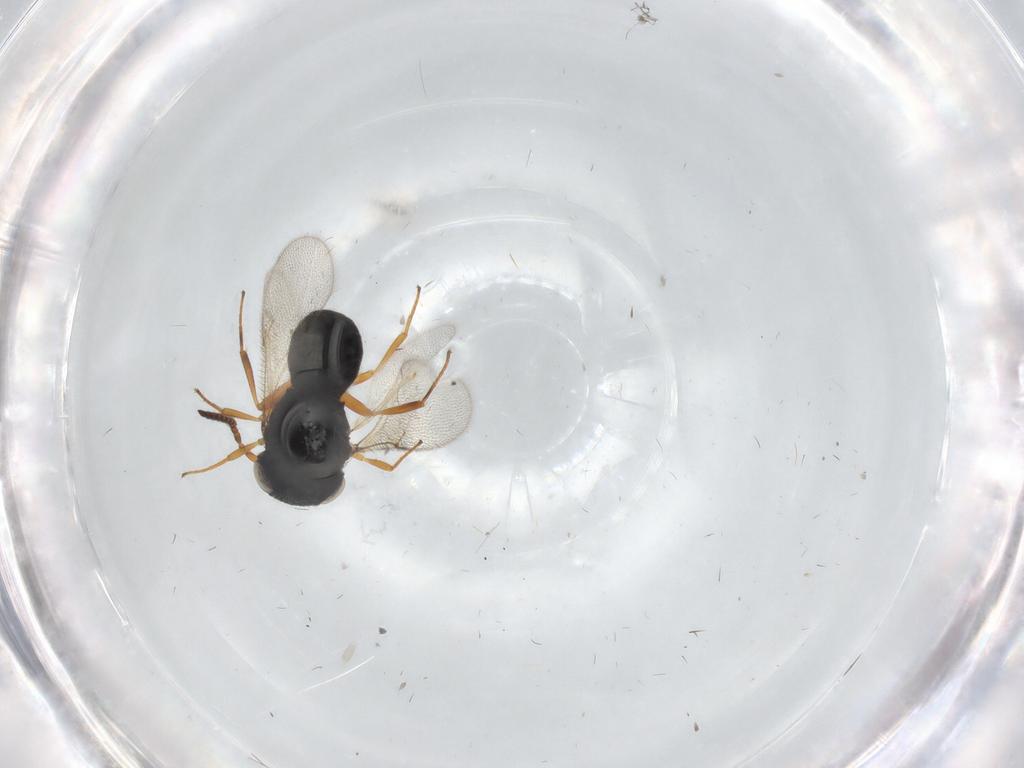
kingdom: Animalia
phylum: Arthropoda
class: Insecta
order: Hymenoptera
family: Scelionidae
